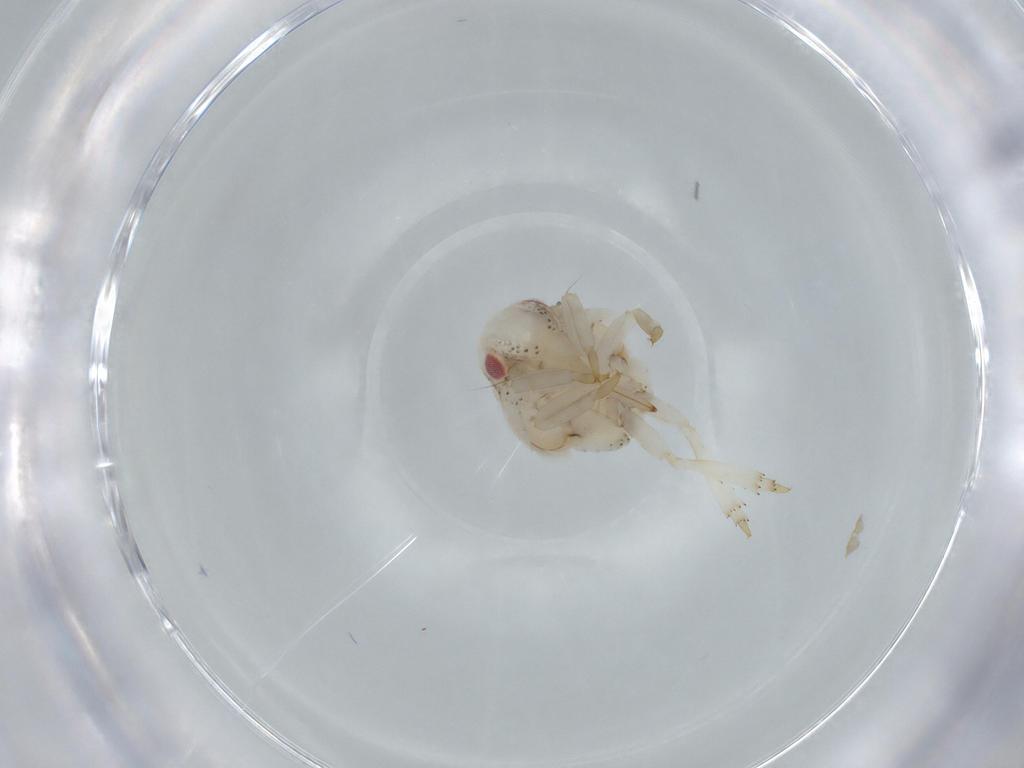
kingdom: Animalia
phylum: Arthropoda
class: Insecta
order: Hemiptera
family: Acanaloniidae
